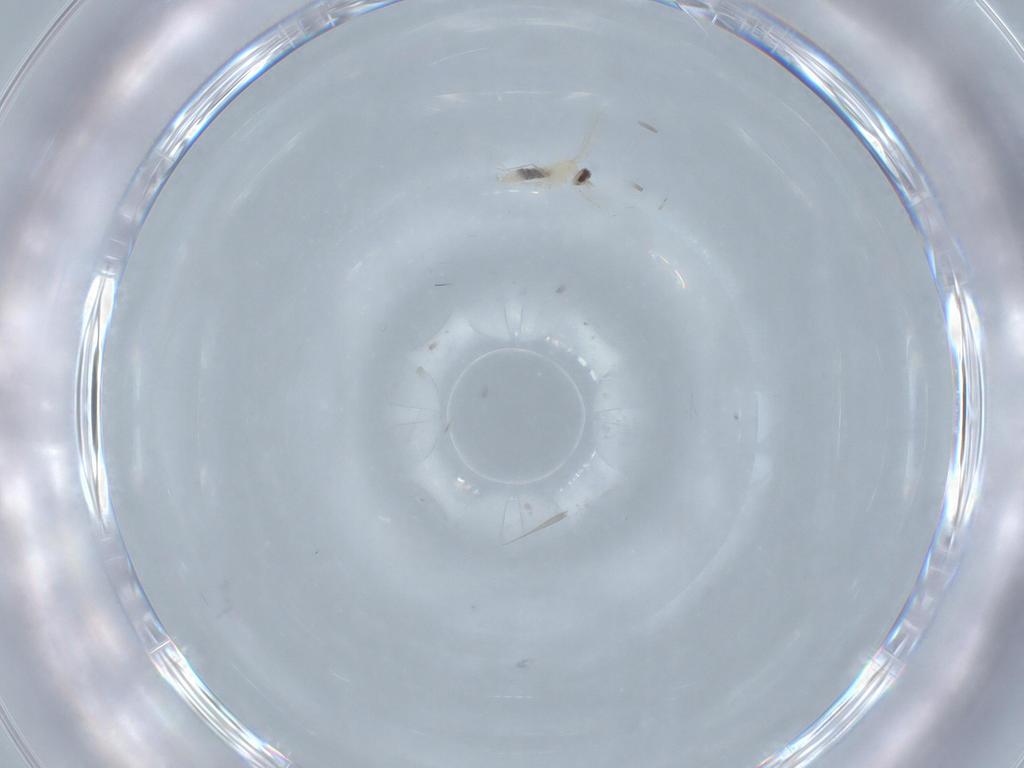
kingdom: Animalia
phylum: Arthropoda
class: Insecta
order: Diptera
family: Cecidomyiidae
